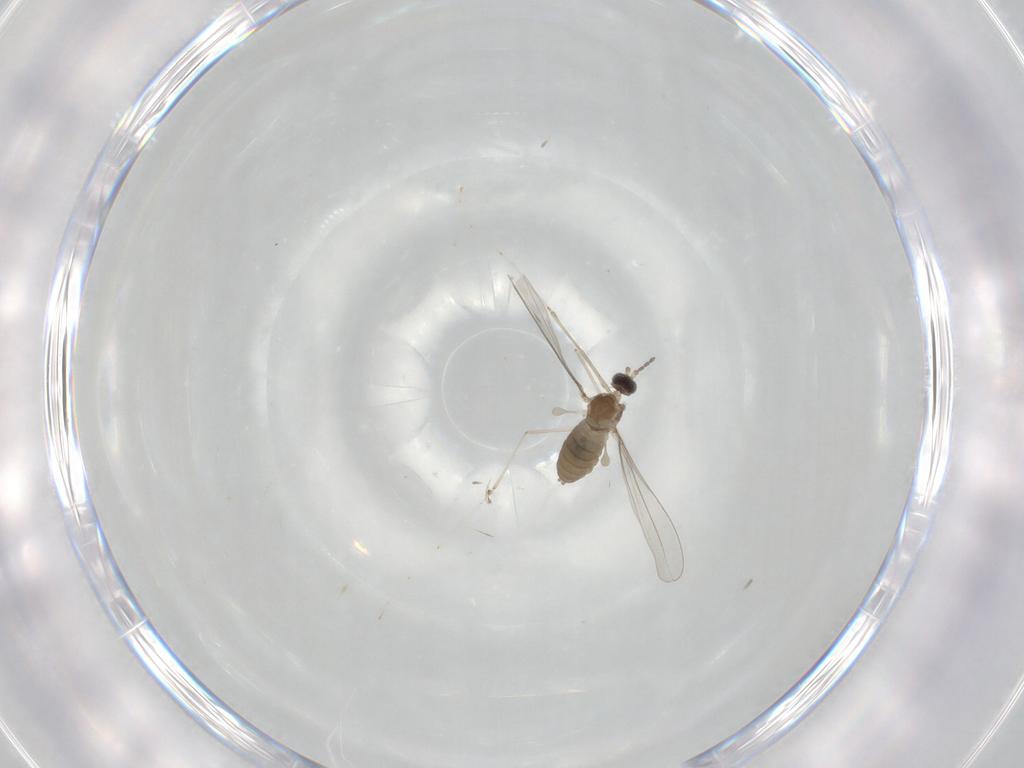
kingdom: Animalia
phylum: Arthropoda
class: Insecta
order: Diptera
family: Cecidomyiidae
